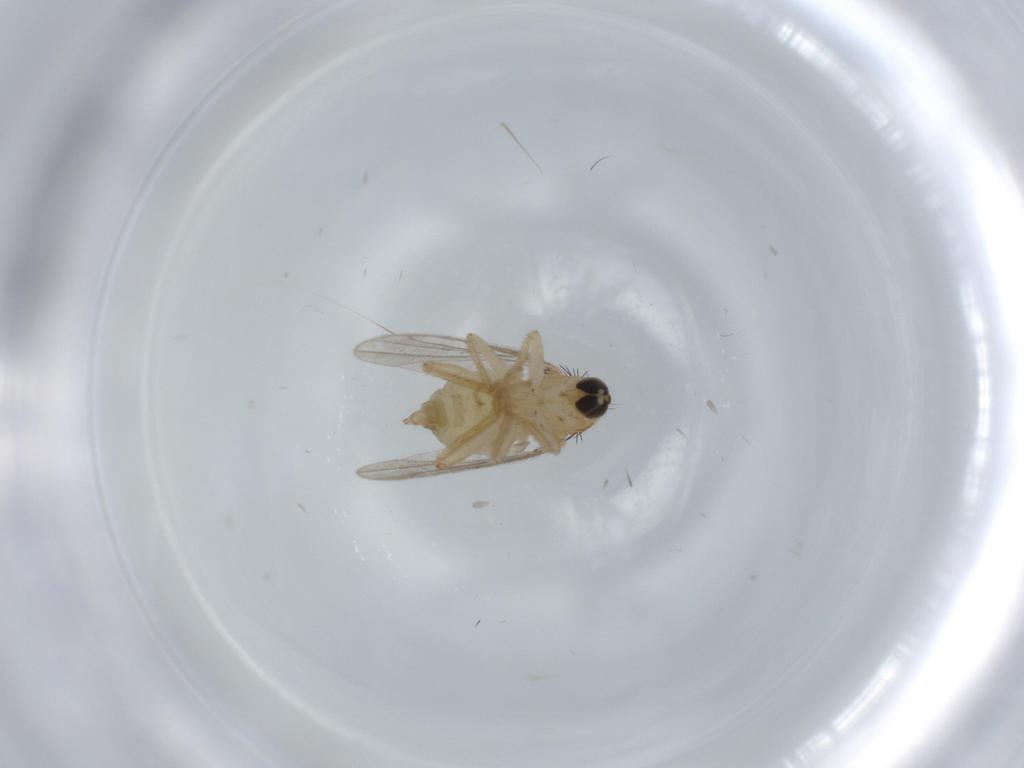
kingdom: Animalia
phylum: Arthropoda
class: Insecta
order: Diptera
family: Hybotidae
